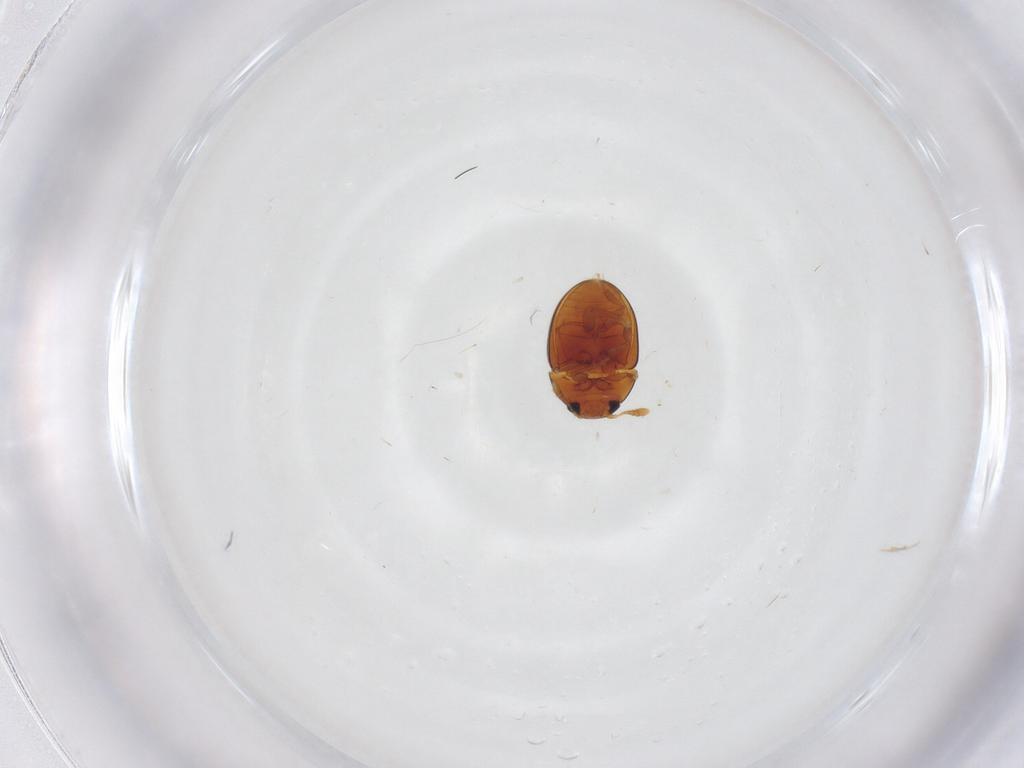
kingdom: Animalia
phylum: Arthropoda
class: Insecta
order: Coleoptera
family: Phalacridae
